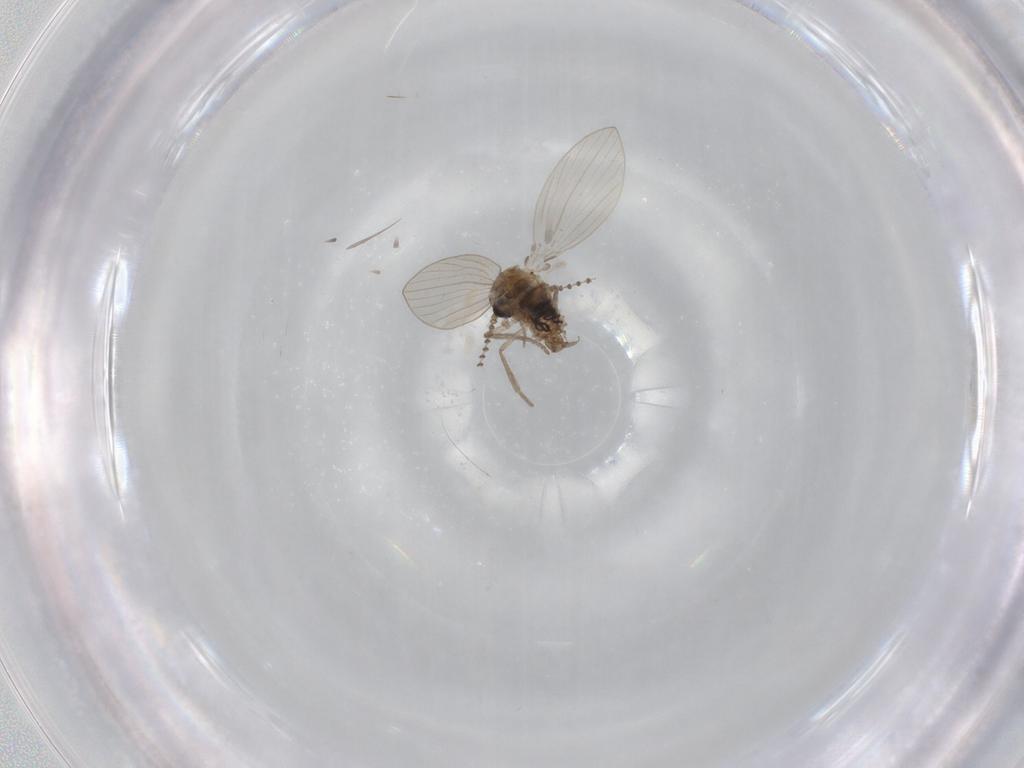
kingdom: Animalia
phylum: Arthropoda
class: Insecta
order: Diptera
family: Psychodidae
